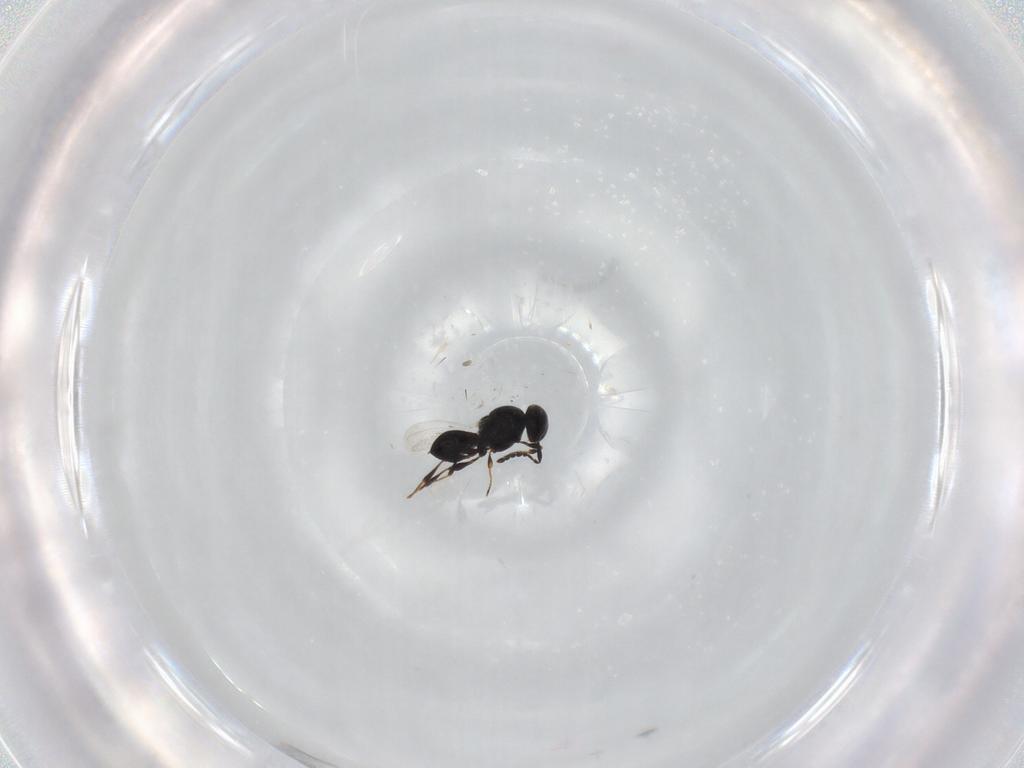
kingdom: Animalia
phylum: Arthropoda
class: Insecta
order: Hymenoptera
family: Platygastridae
